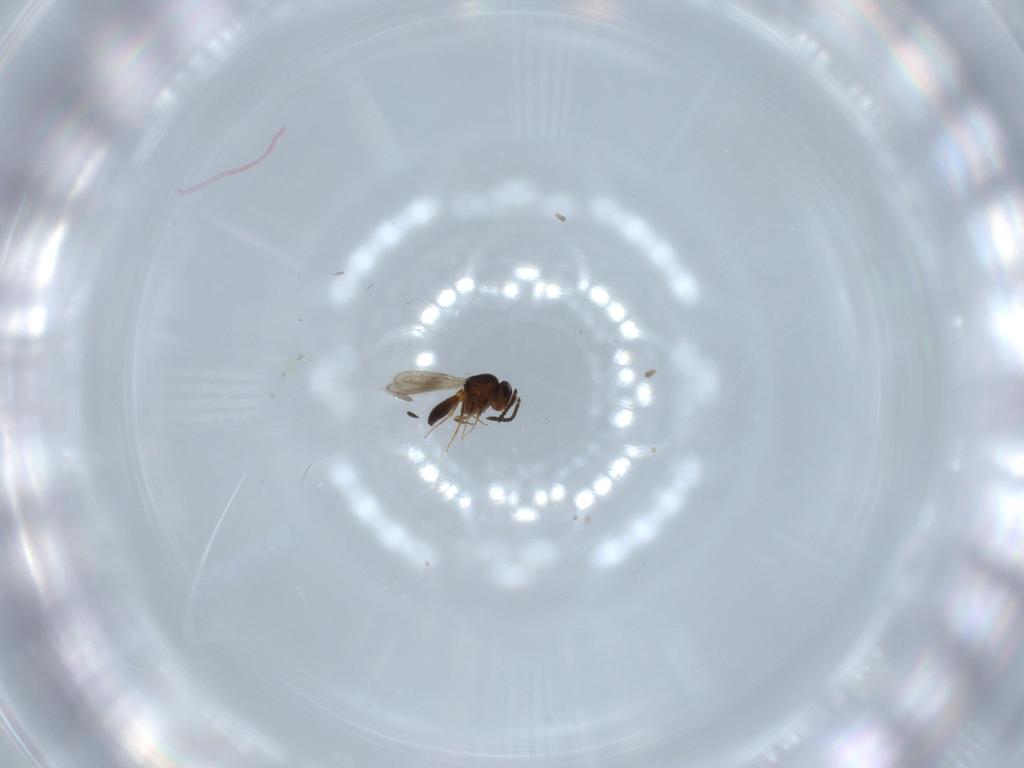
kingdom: Animalia
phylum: Arthropoda
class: Insecta
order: Hymenoptera
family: Scelionidae
